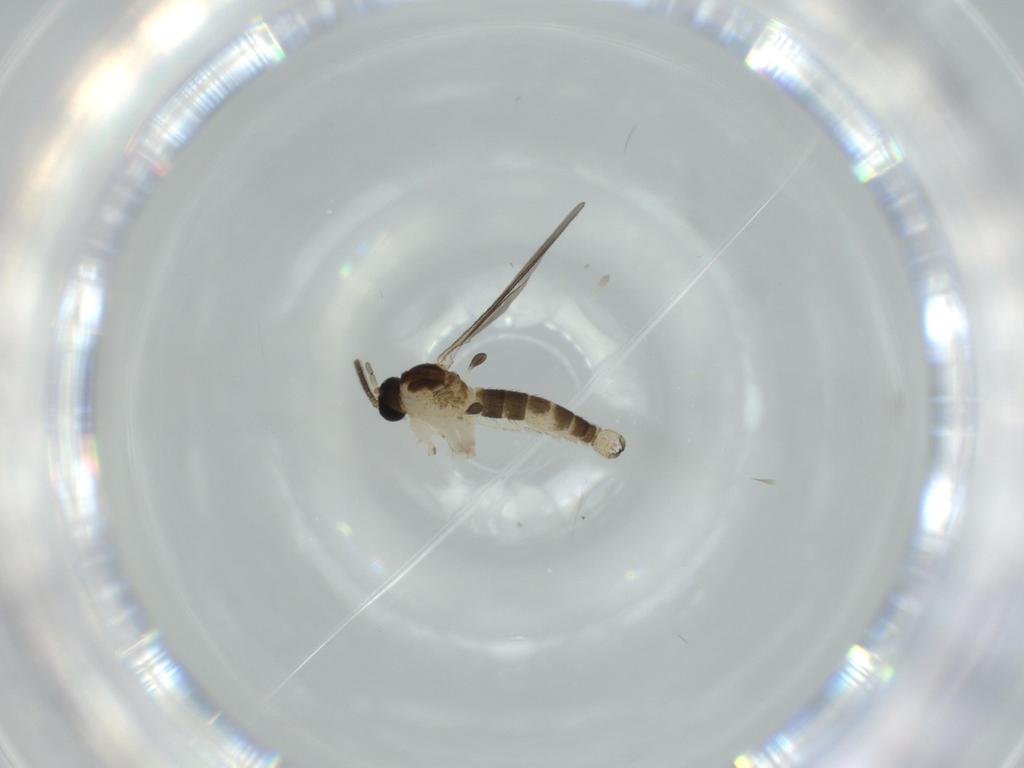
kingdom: Animalia
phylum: Arthropoda
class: Insecta
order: Diptera
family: Sciaridae
